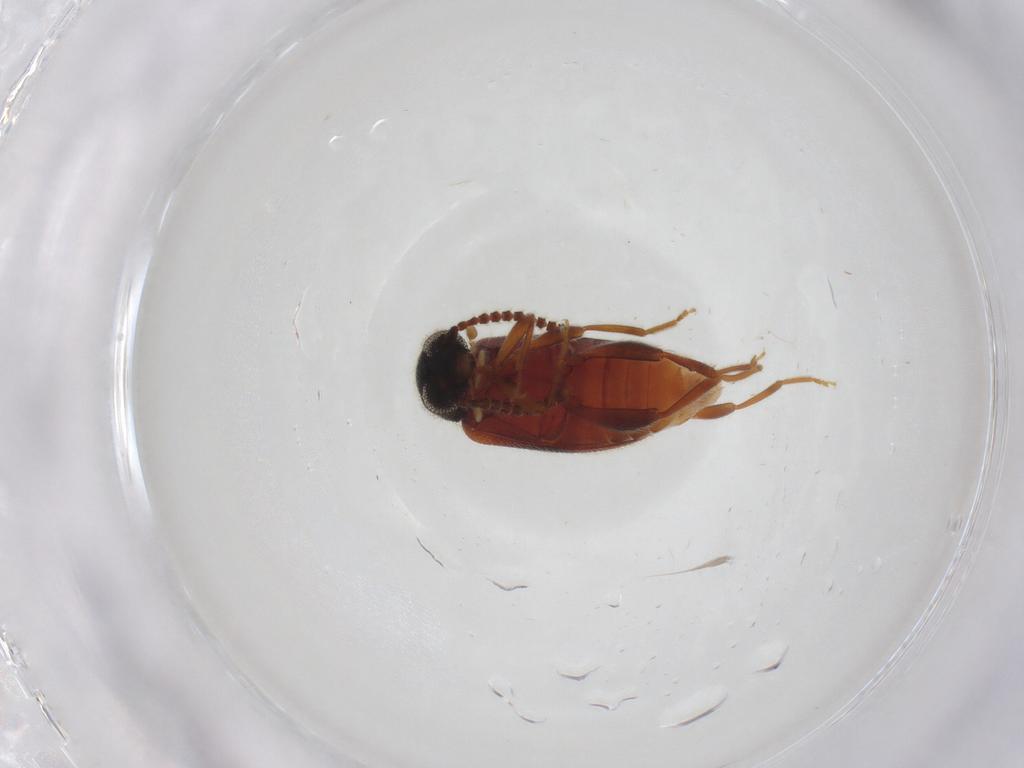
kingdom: Animalia
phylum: Arthropoda
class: Insecta
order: Coleoptera
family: Aderidae
